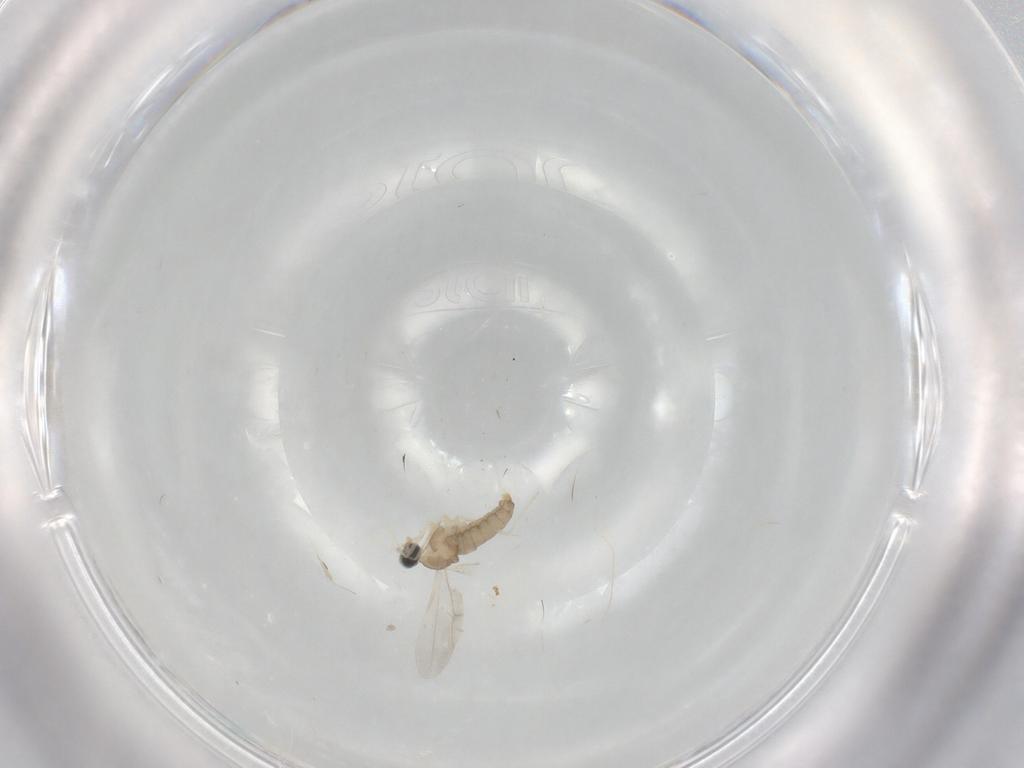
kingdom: Animalia
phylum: Arthropoda
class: Insecta
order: Diptera
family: Cecidomyiidae
